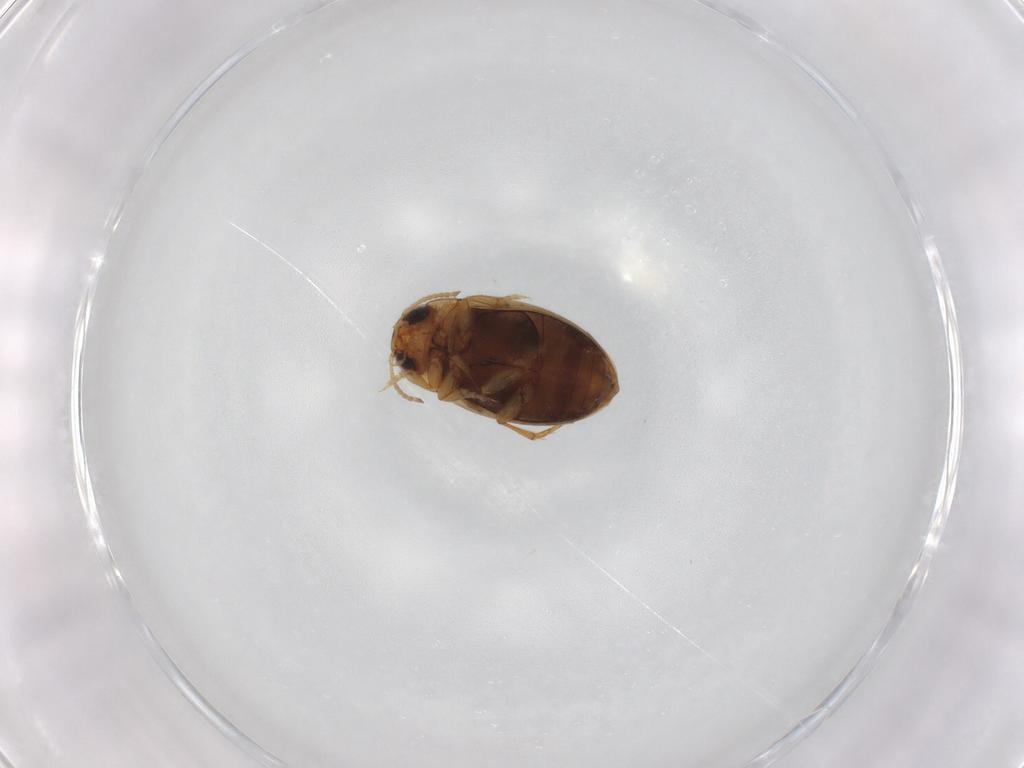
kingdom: Animalia
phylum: Arthropoda
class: Insecta
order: Coleoptera
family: Dytiscidae
